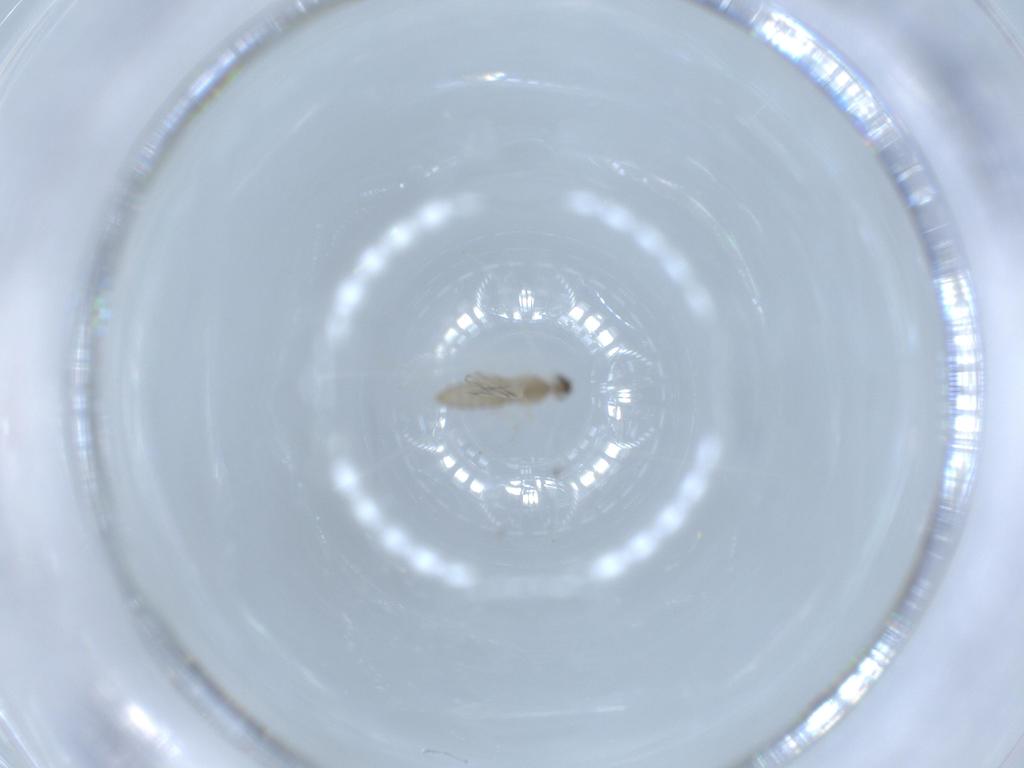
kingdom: Animalia
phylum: Arthropoda
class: Insecta
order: Diptera
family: Cecidomyiidae
